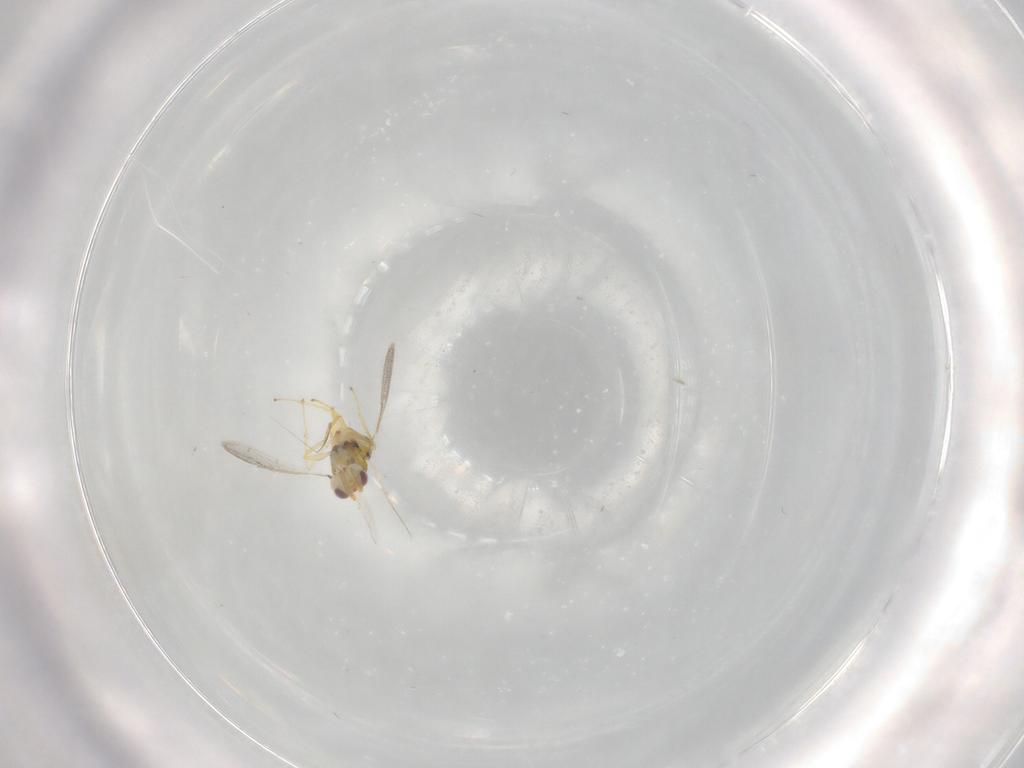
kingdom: Animalia
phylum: Arthropoda
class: Insecta
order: Hymenoptera
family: Eulophidae
